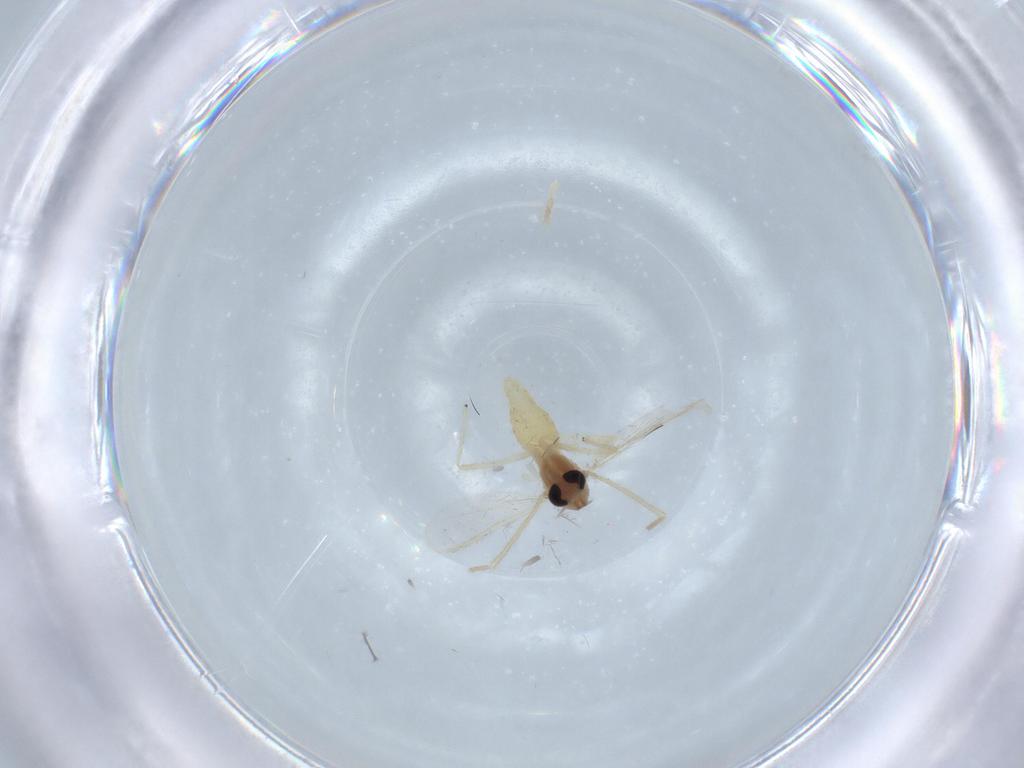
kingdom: Animalia
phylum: Arthropoda
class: Insecta
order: Diptera
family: Chironomidae
